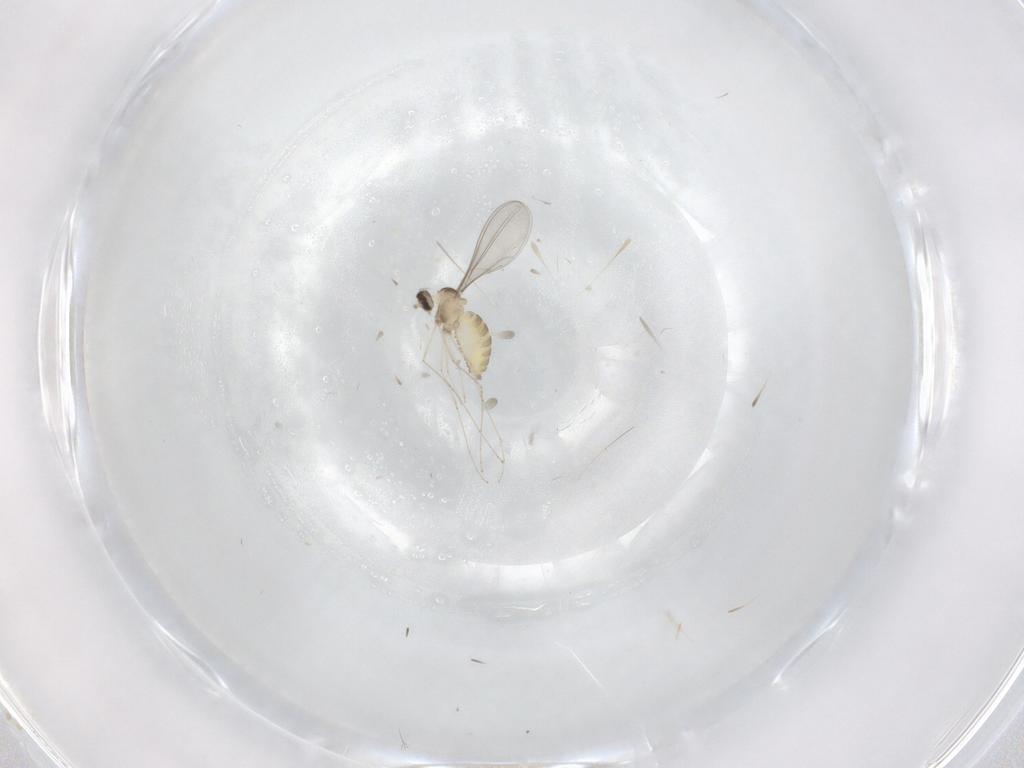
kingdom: Animalia
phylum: Arthropoda
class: Insecta
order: Diptera
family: Cecidomyiidae
